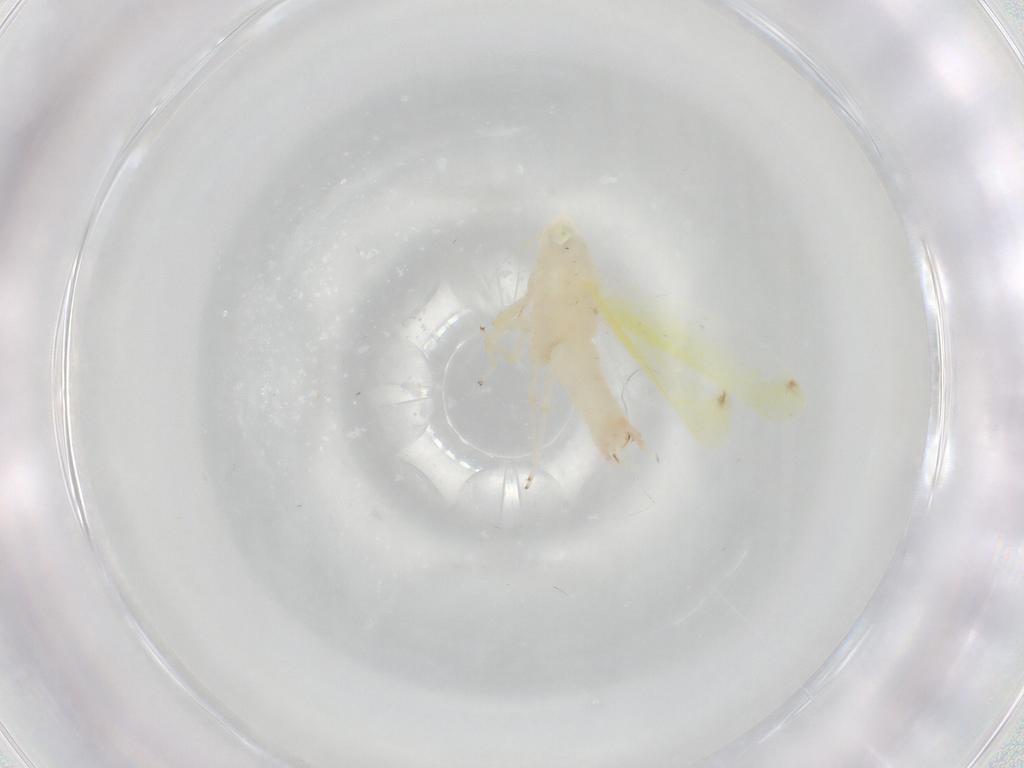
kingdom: Animalia
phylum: Arthropoda
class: Insecta
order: Hemiptera
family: Cicadellidae
